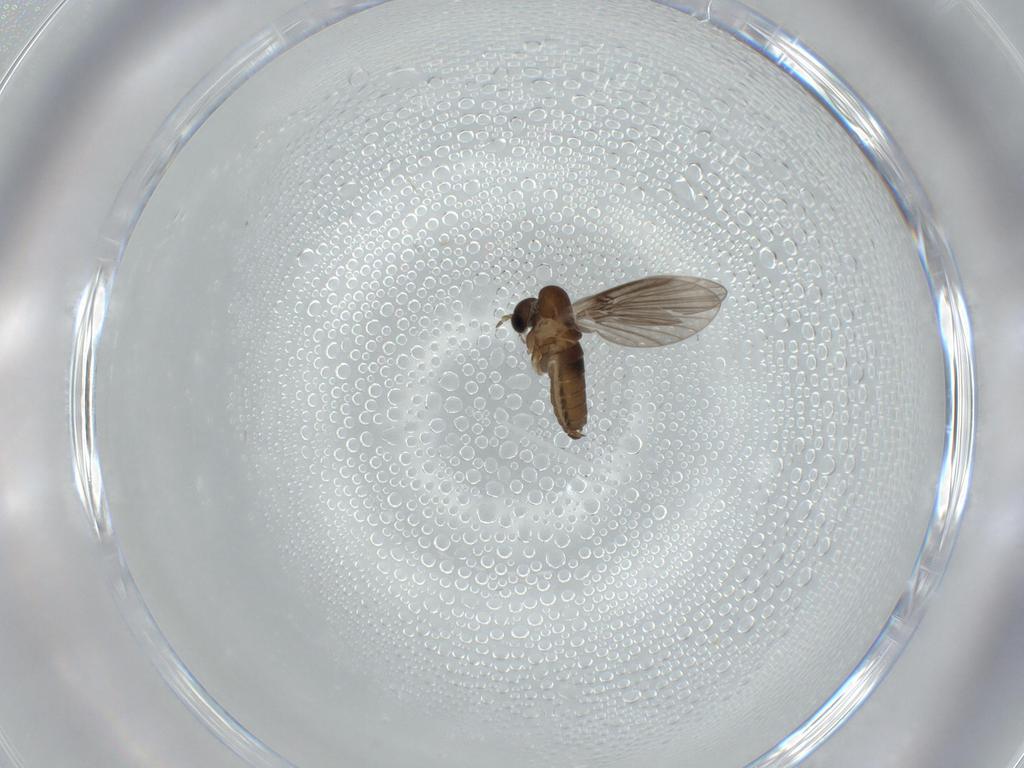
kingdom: Animalia
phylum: Arthropoda
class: Insecta
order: Diptera
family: Psychodidae
